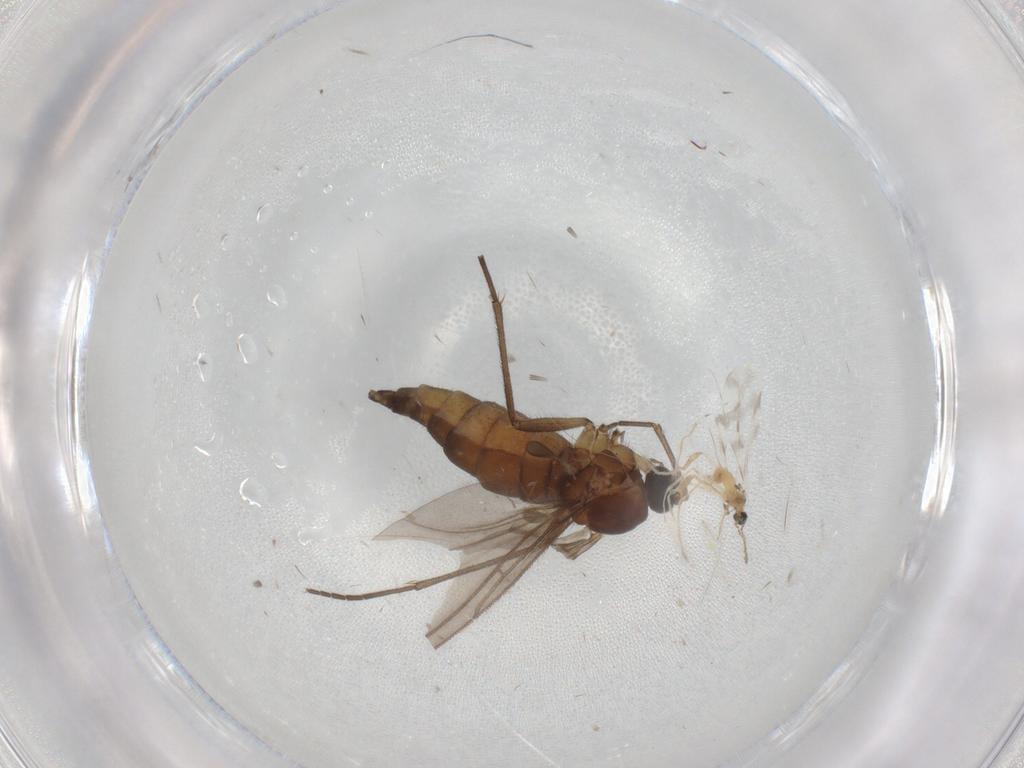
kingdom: Animalia
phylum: Arthropoda
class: Insecta
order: Diptera
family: Sciaridae
